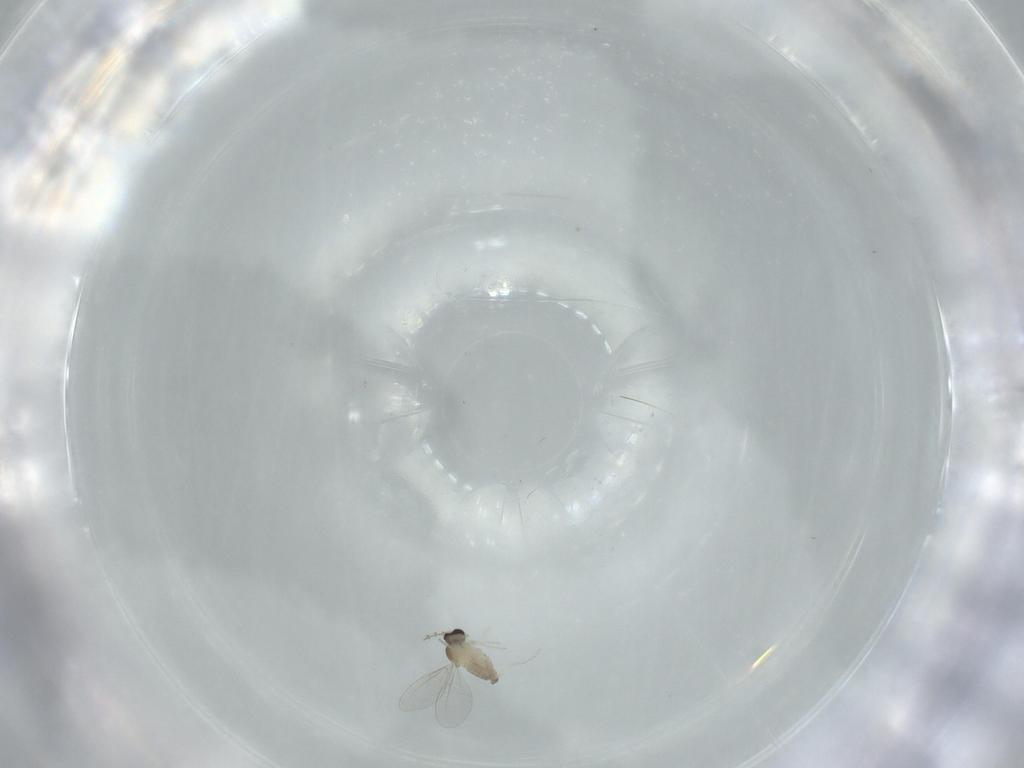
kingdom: Animalia
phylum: Arthropoda
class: Insecta
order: Diptera
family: Cecidomyiidae
